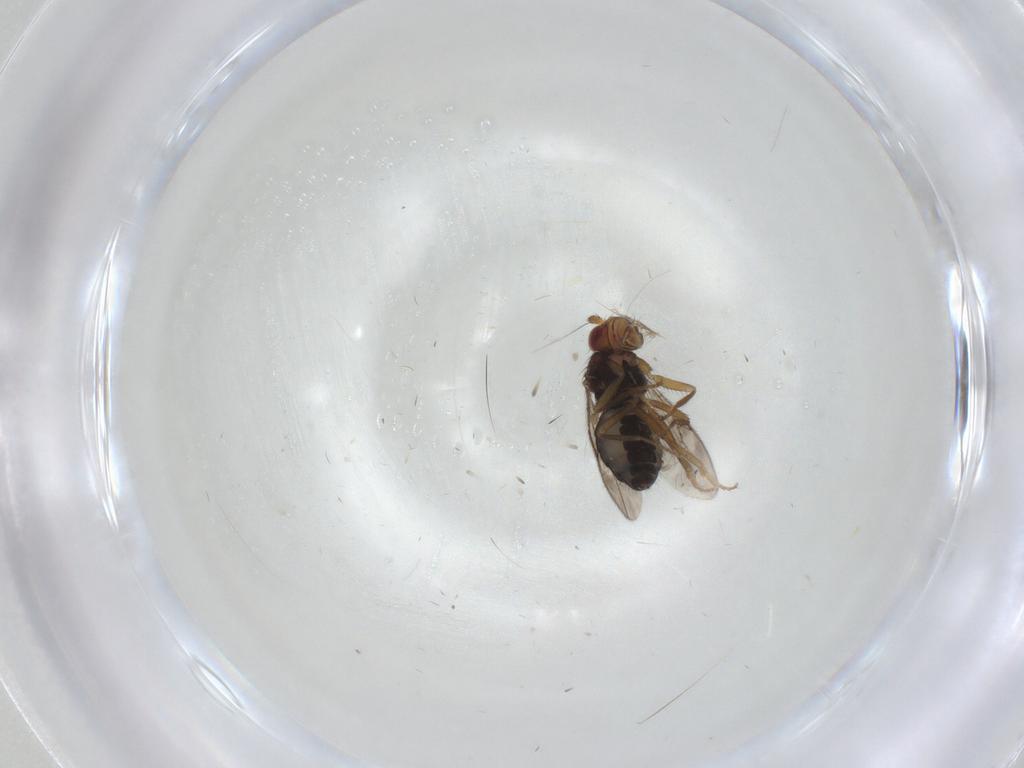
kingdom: Animalia
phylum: Arthropoda
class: Insecta
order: Diptera
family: Sphaeroceridae
